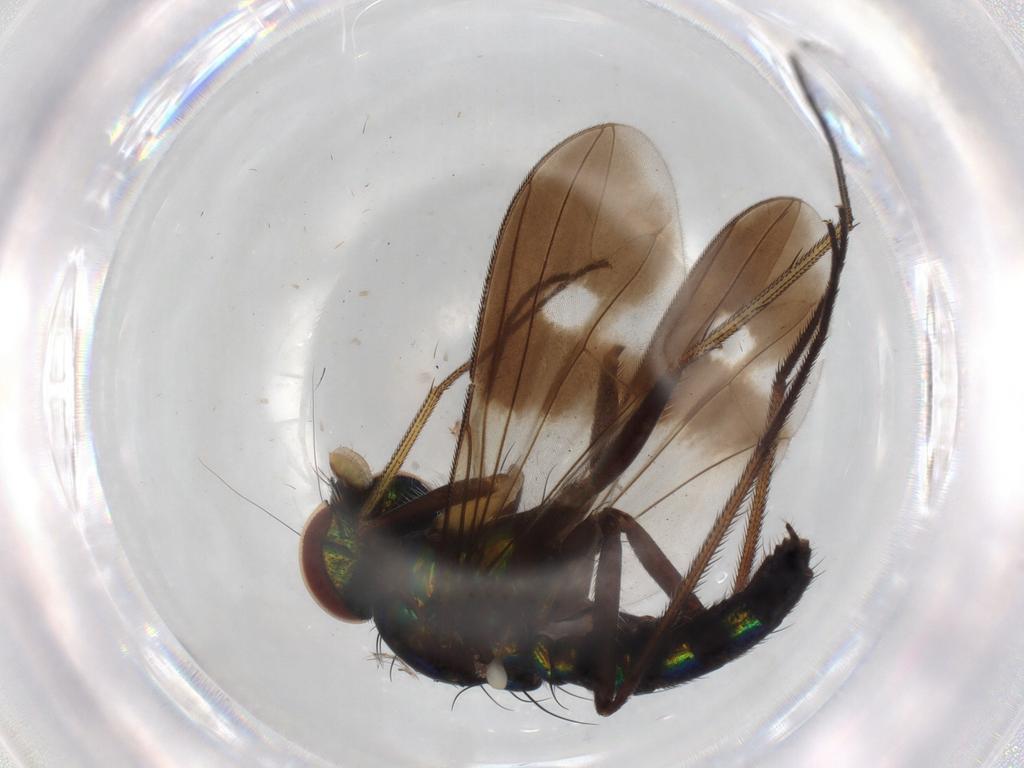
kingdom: Animalia
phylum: Arthropoda
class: Insecta
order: Diptera
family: Dolichopodidae
